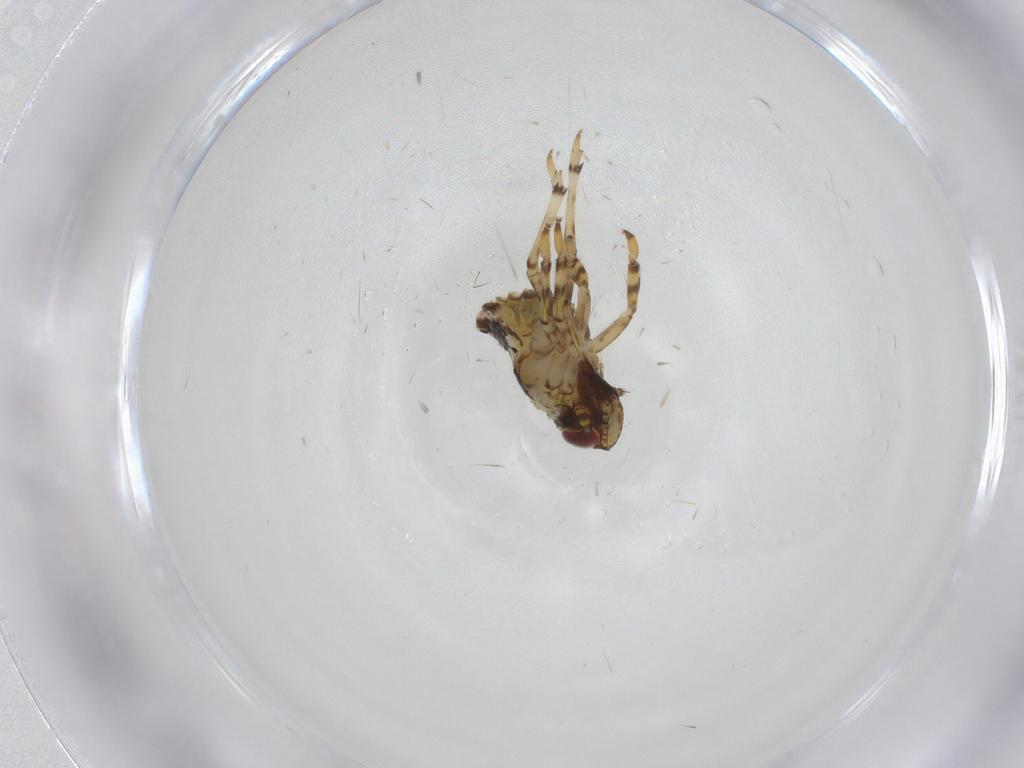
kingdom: Animalia
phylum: Arthropoda
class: Insecta
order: Hemiptera
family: Issidae
